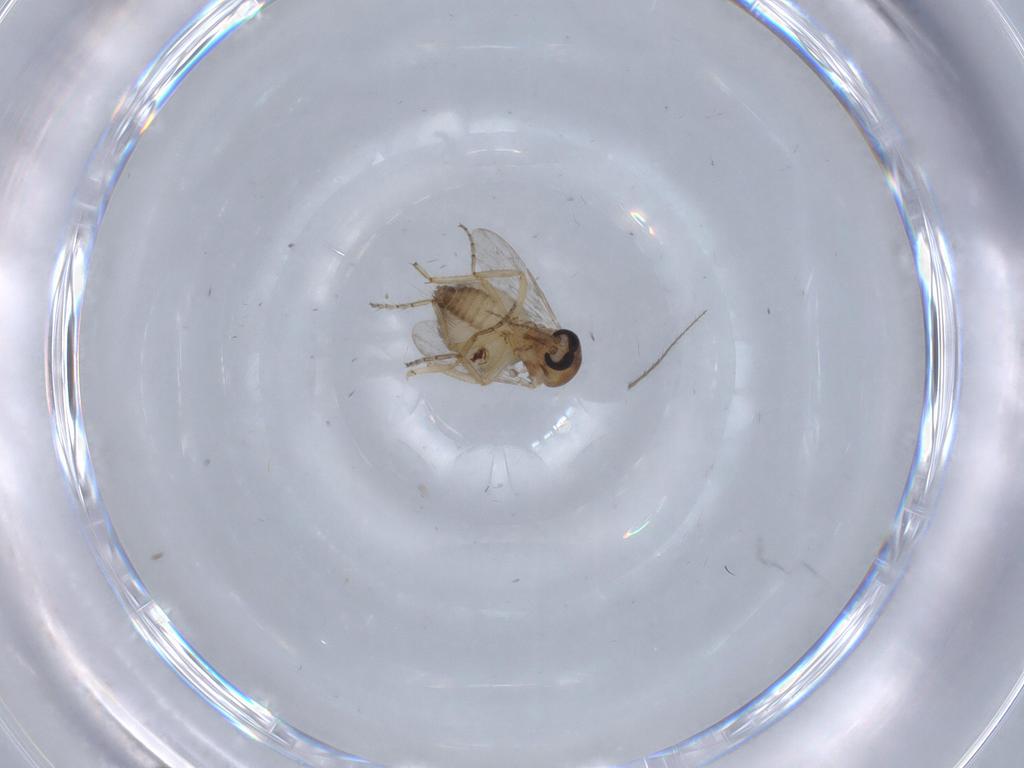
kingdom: Animalia
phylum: Arthropoda
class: Insecta
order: Diptera
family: Ceratopogonidae
